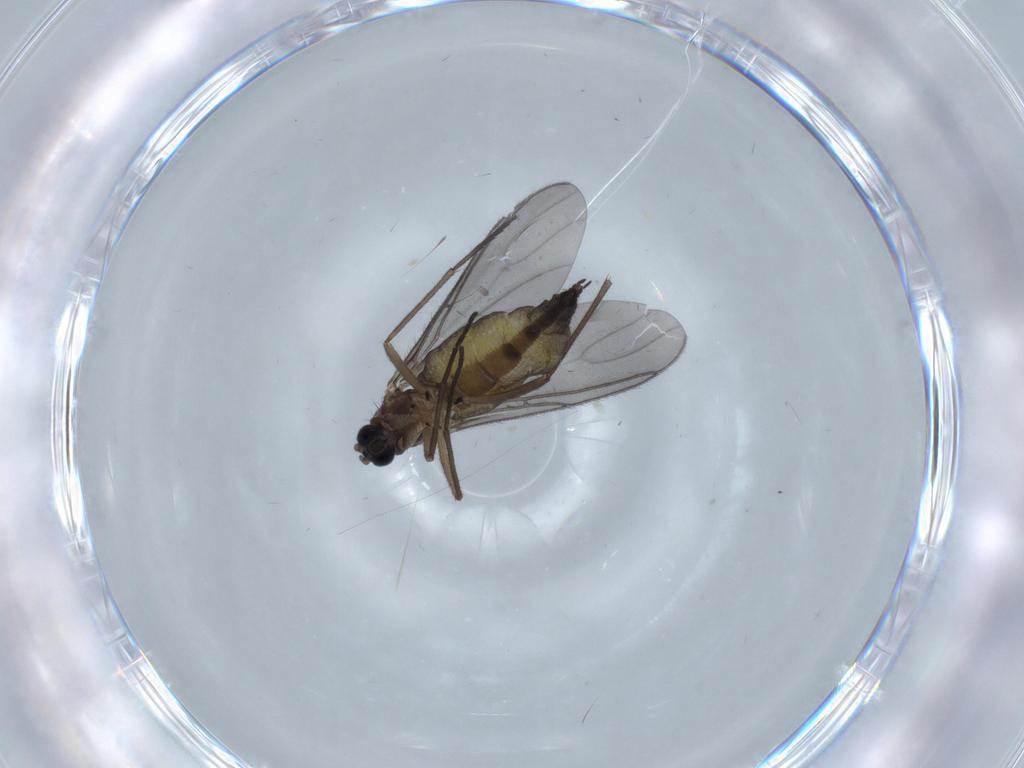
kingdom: Animalia
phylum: Arthropoda
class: Insecta
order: Diptera
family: Sciaridae
